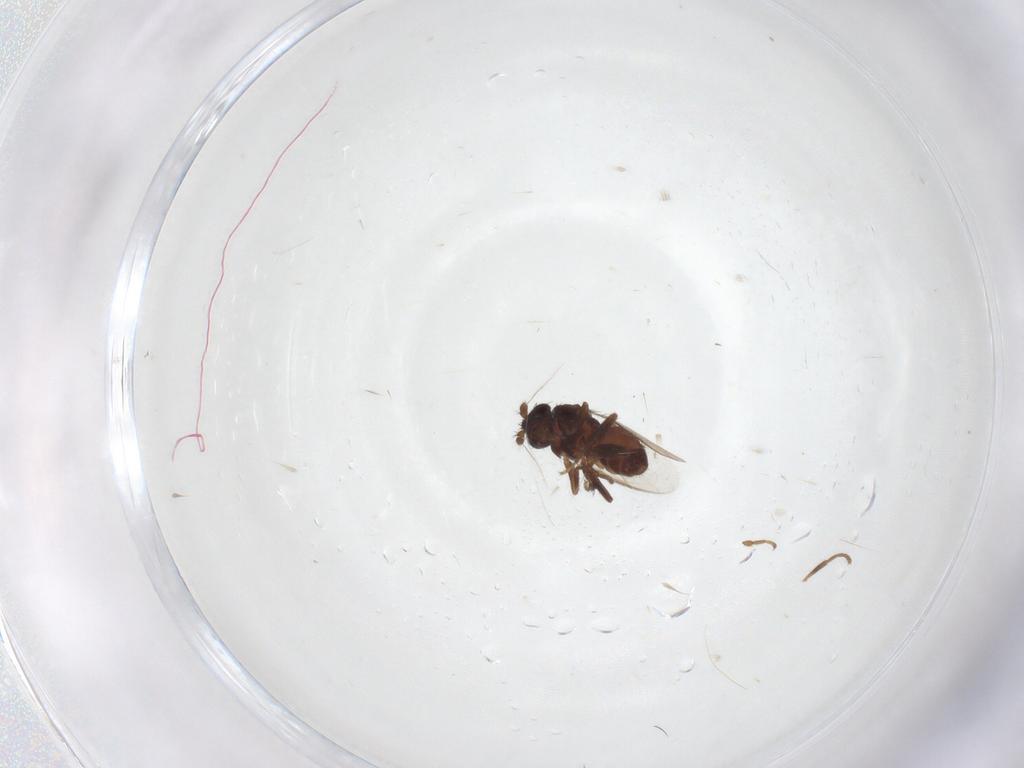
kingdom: Animalia
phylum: Arthropoda
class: Insecta
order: Diptera
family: Sphaeroceridae
